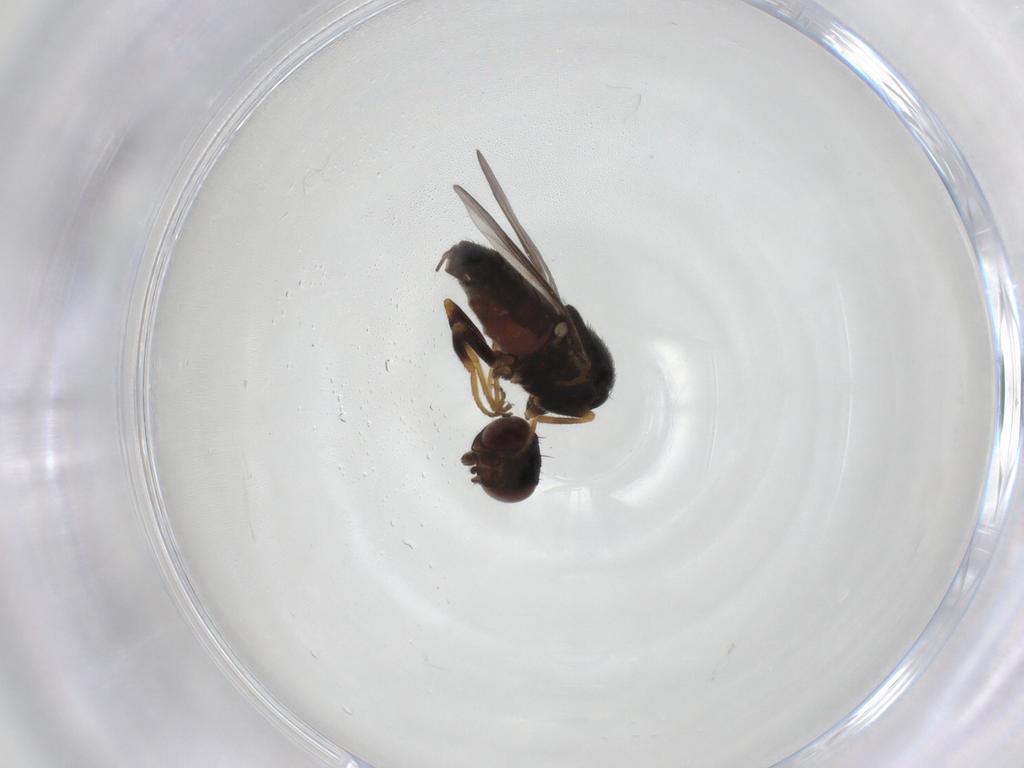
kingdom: Animalia
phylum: Arthropoda
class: Insecta
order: Diptera
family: Chloropidae
